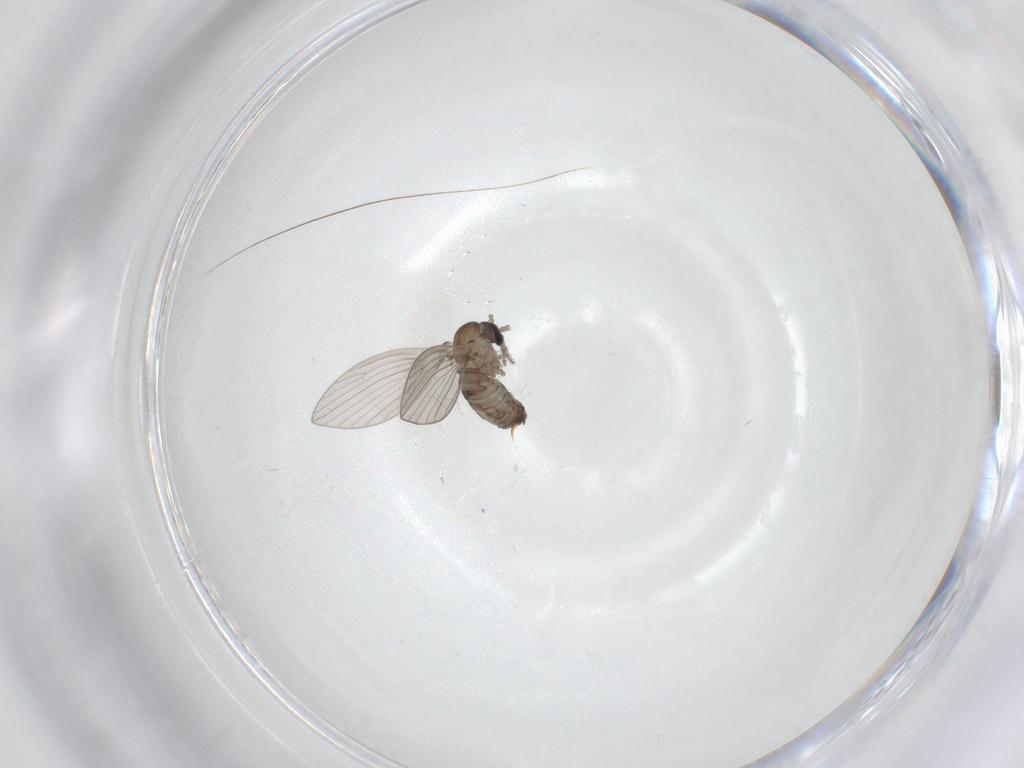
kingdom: Animalia
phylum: Arthropoda
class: Insecta
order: Diptera
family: Psychodidae
